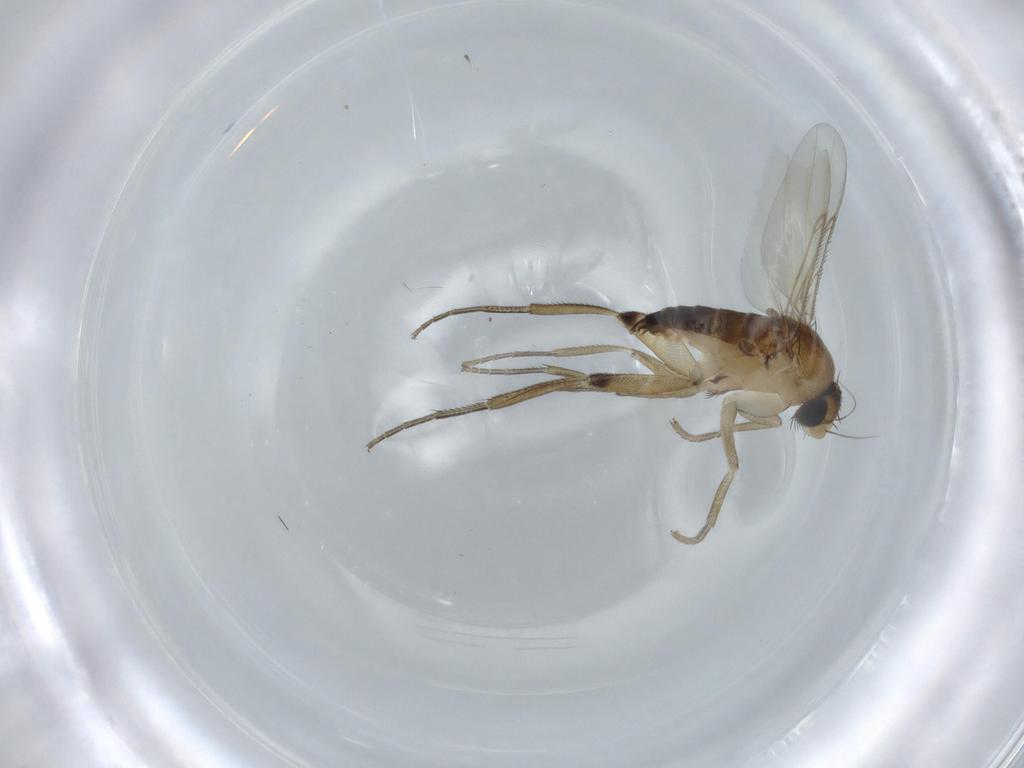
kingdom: Animalia
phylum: Arthropoda
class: Insecta
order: Diptera
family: Phoridae
